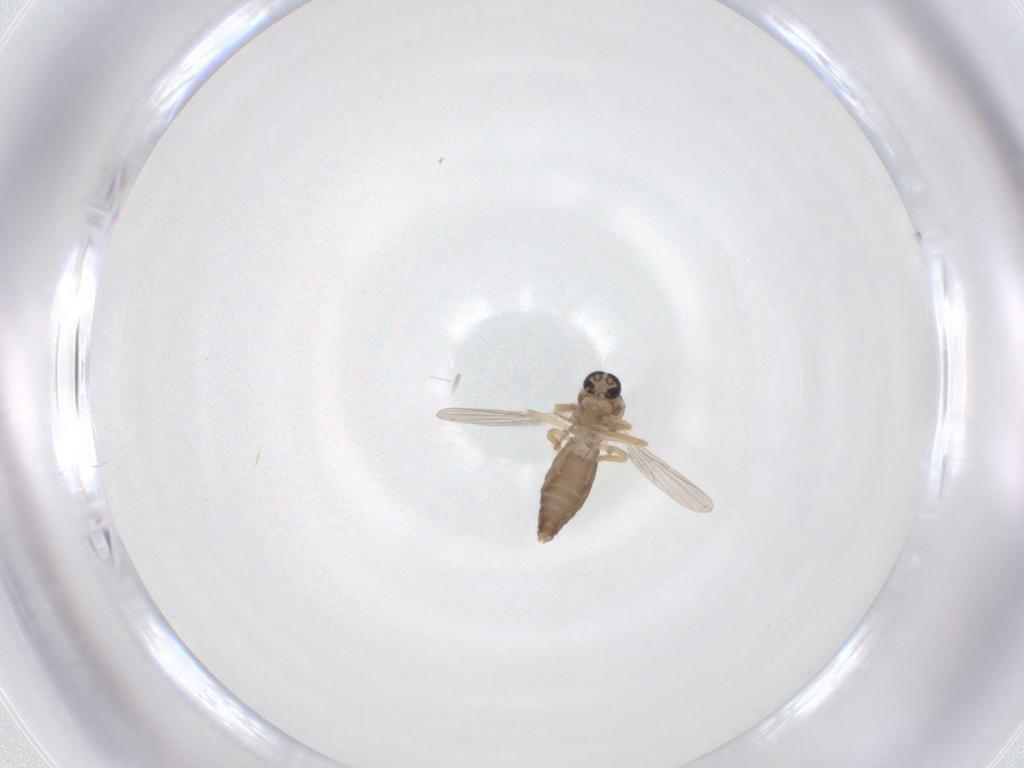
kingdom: Animalia
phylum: Arthropoda
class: Insecta
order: Diptera
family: Ceratopogonidae
